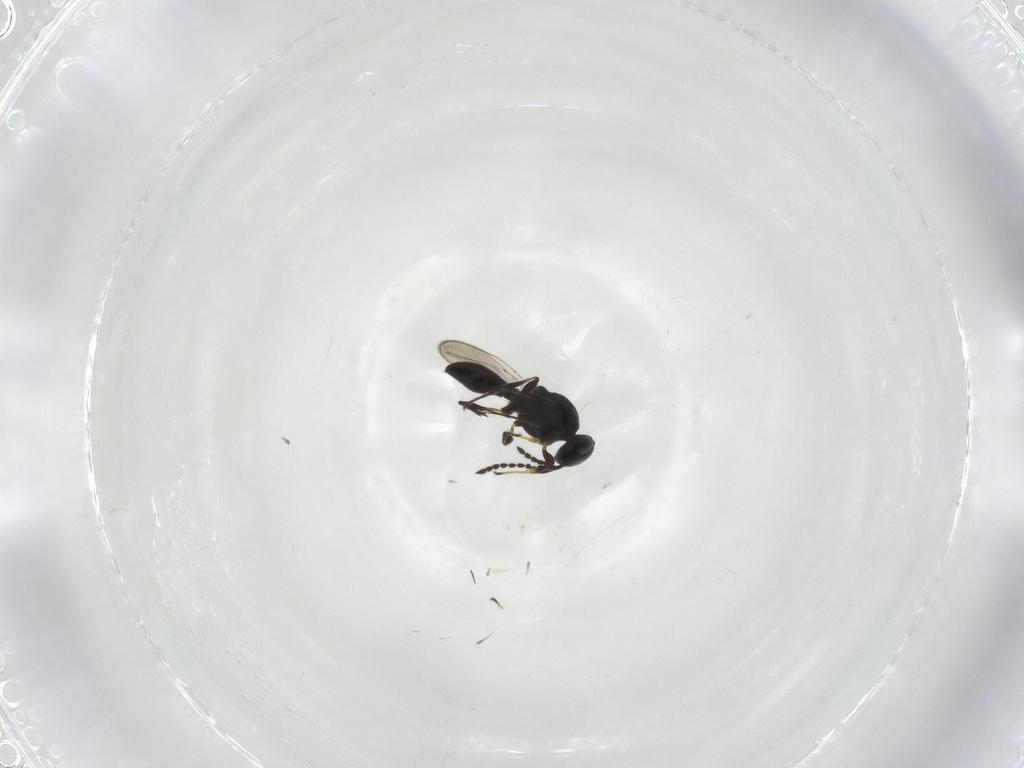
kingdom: Animalia
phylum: Arthropoda
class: Insecta
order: Hymenoptera
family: Platygastridae
